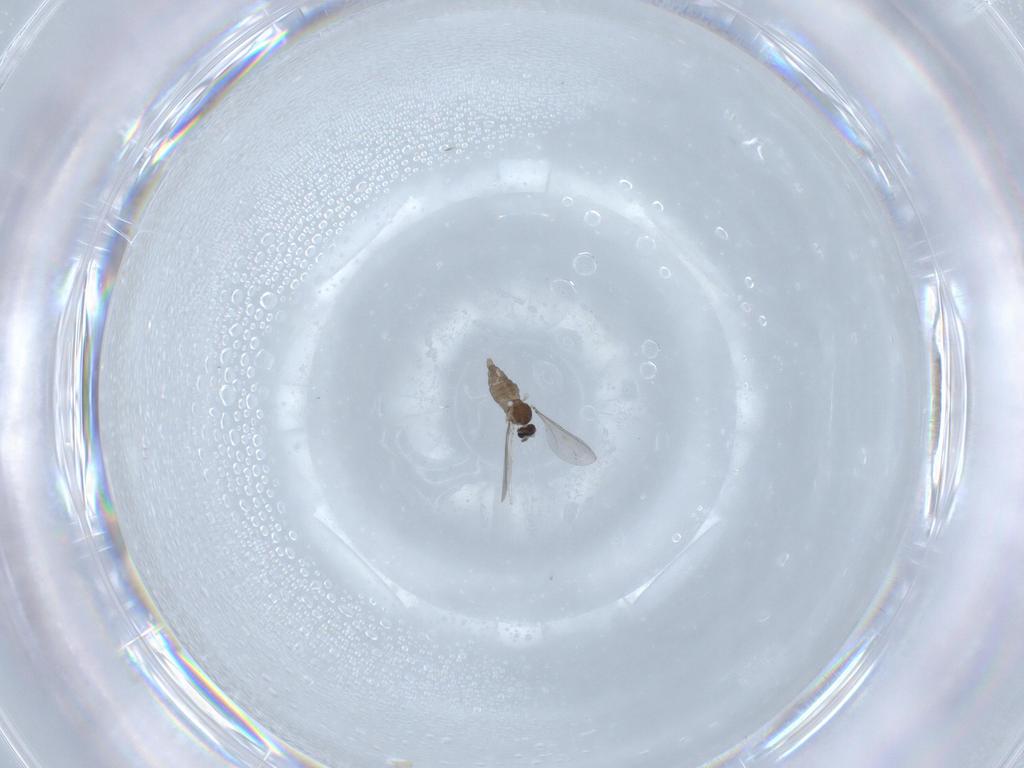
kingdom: Animalia
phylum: Arthropoda
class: Insecta
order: Diptera
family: Cecidomyiidae
